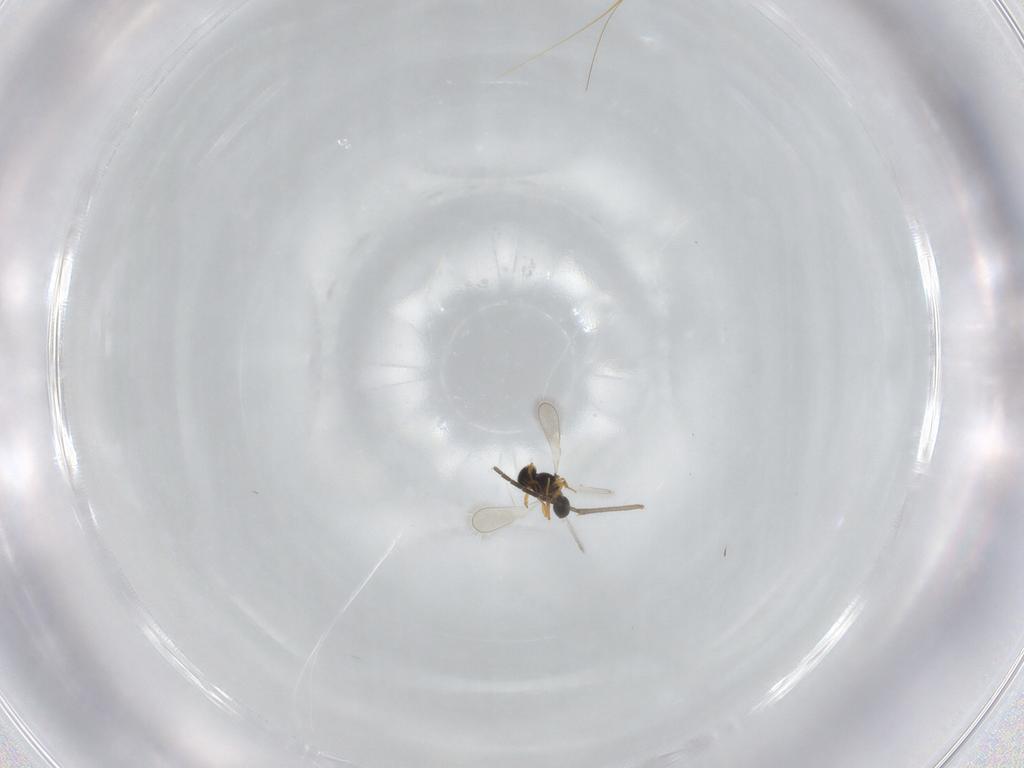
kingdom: Animalia
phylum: Arthropoda
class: Insecta
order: Hymenoptera
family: Platygastridae
